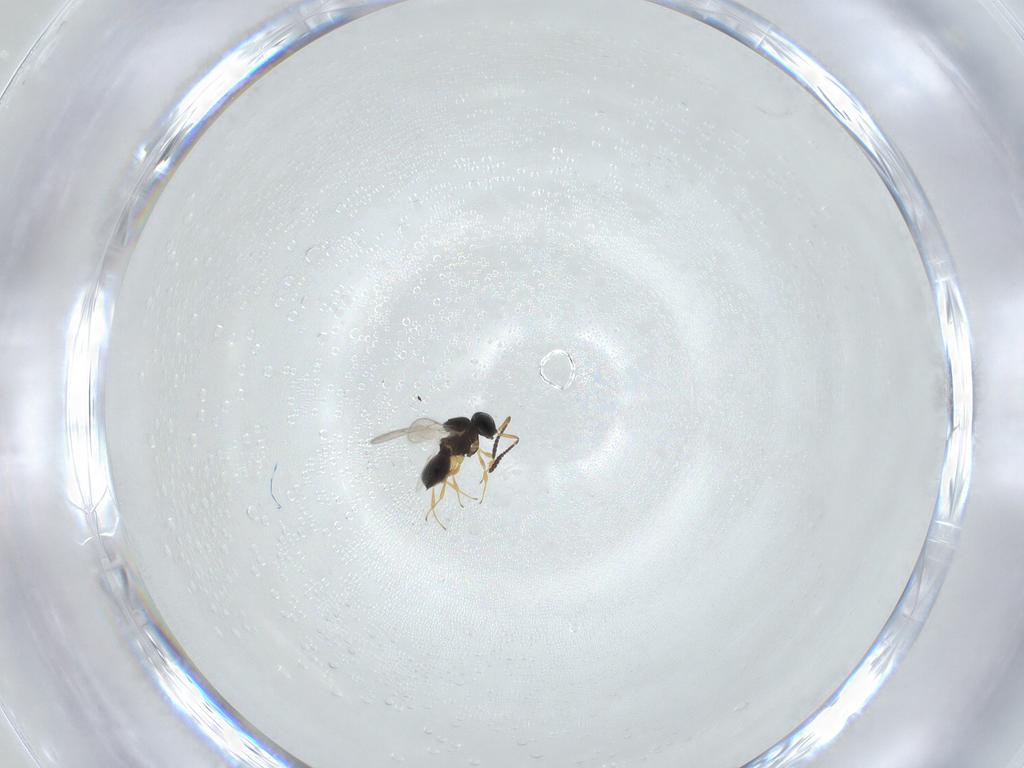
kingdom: Animalia
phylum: Arthropoda
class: Insecta
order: Hymenoptera
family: Scelionidae
